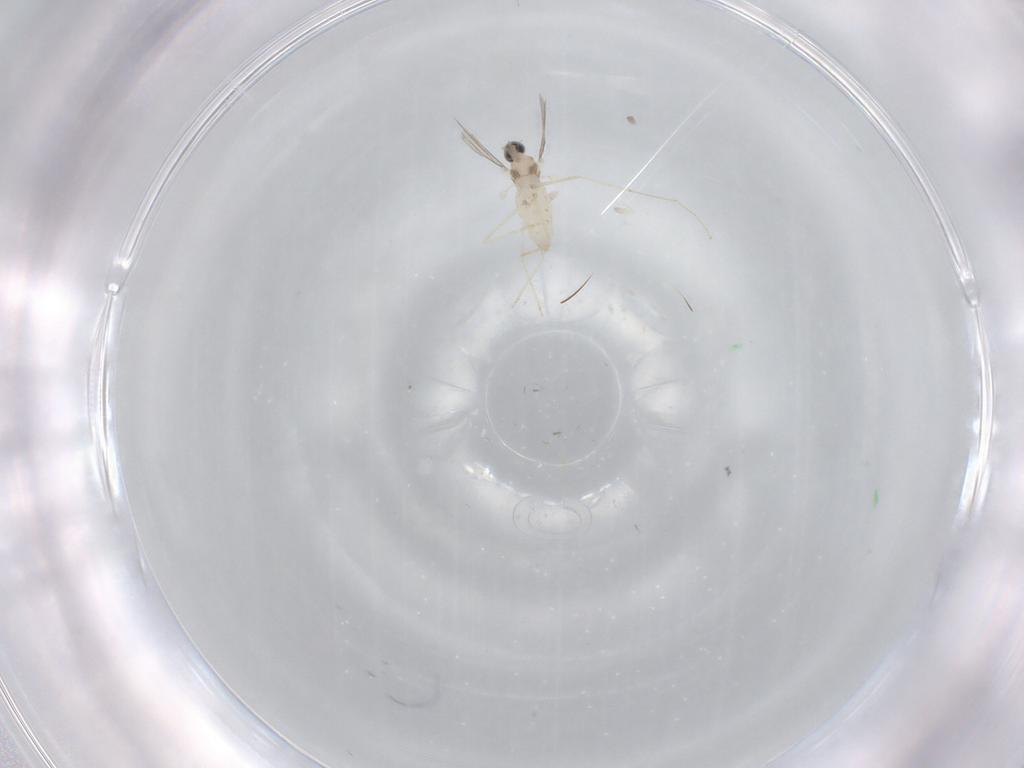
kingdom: Animalia
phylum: Arthropoda
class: Insecta
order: Diptera
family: Cecidomyiidae
